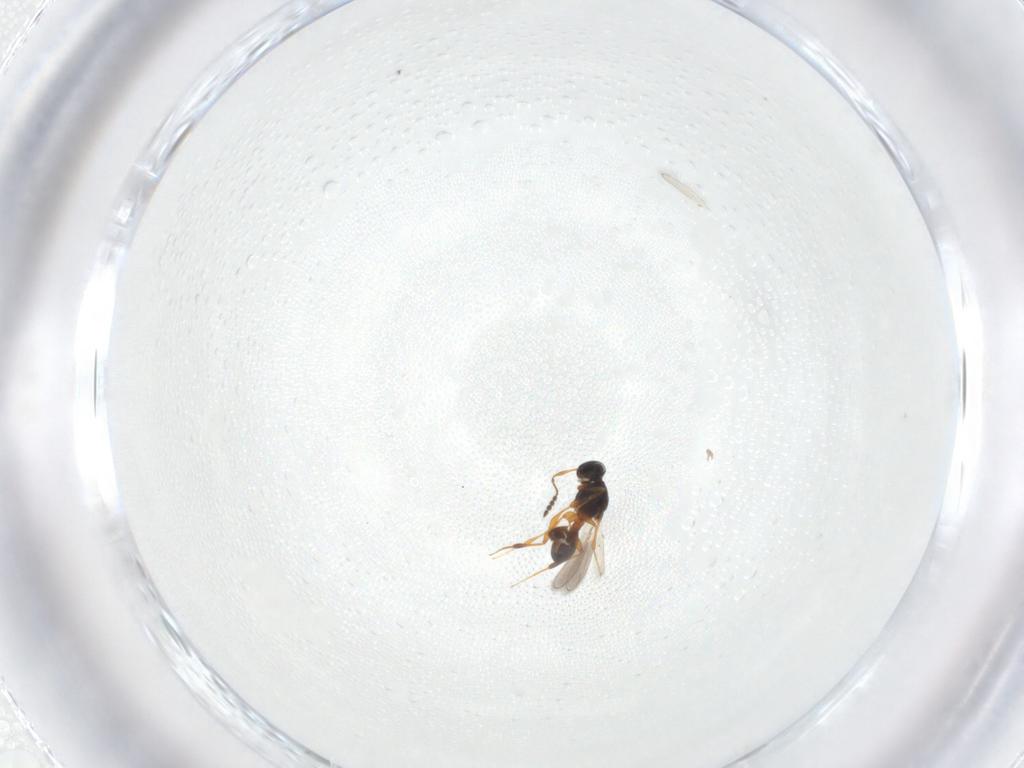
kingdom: Animalia
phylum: Arthropoda
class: Insecta
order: Hymenoptera
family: Platygastridae
